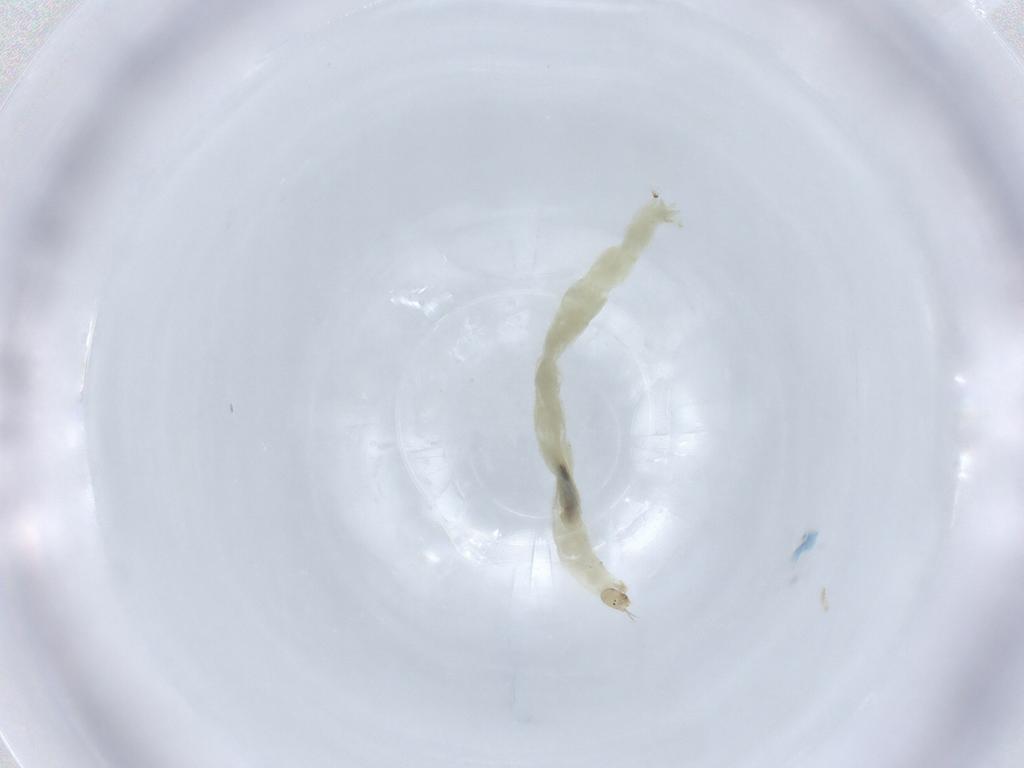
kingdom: Animalia
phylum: Arthropoda
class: Insecta
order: Diptera
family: Chironomidae
